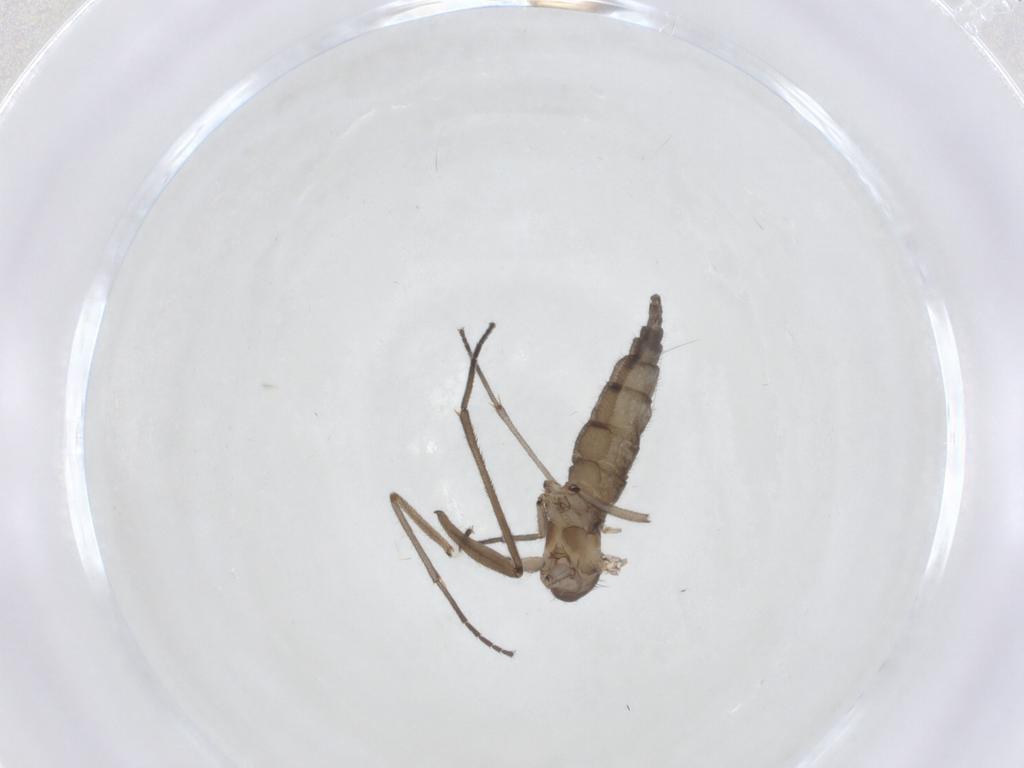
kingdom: Animalia
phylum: Arthropoda
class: Insecta
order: Diptera
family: Sciaridae
